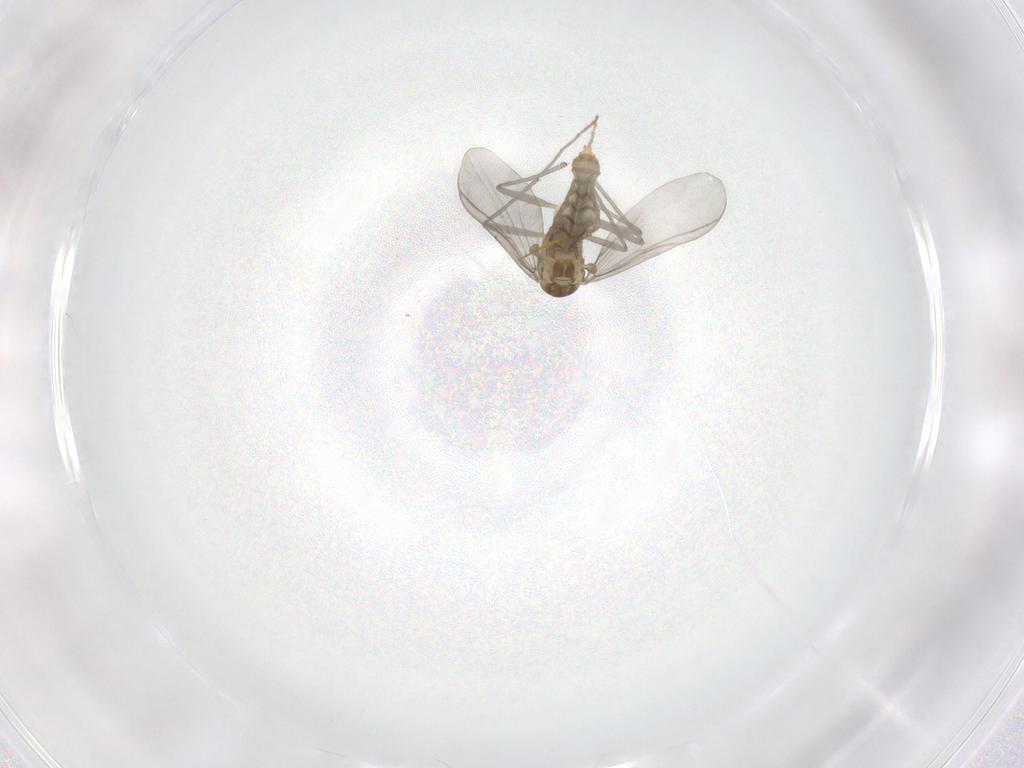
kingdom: Animalia
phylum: Arthropoda
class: Insecta
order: Diptera
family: Chironomidae
